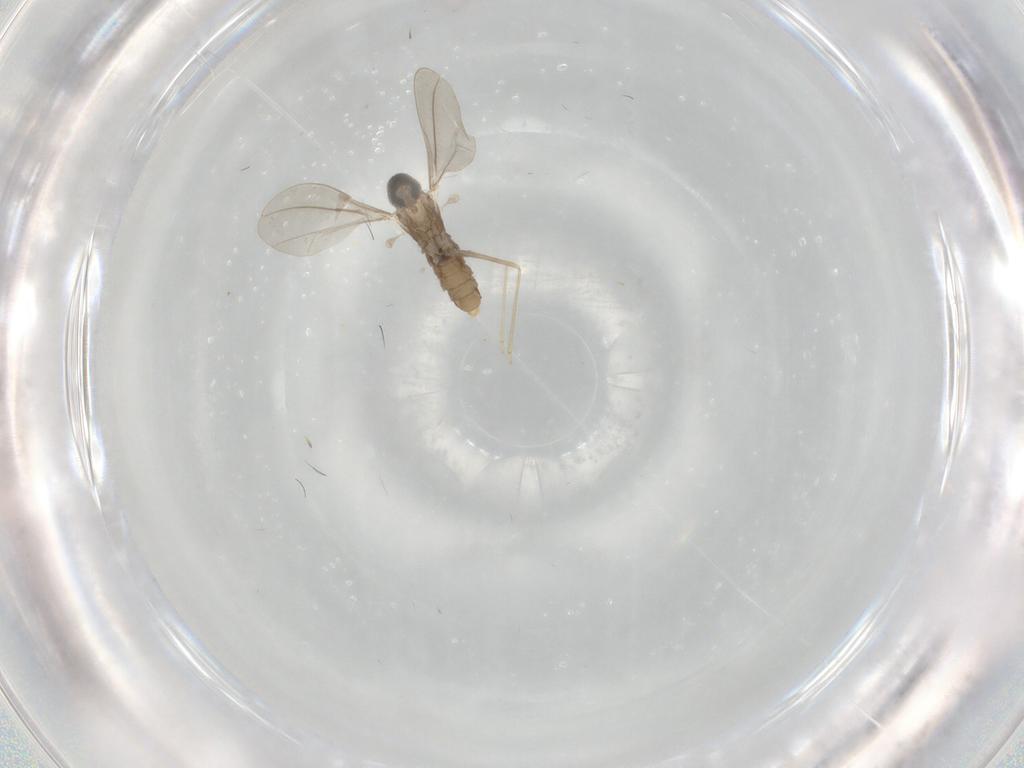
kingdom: Animalia
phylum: Arthropoda
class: Insecta
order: Diptera
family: Cecidomyiidae
